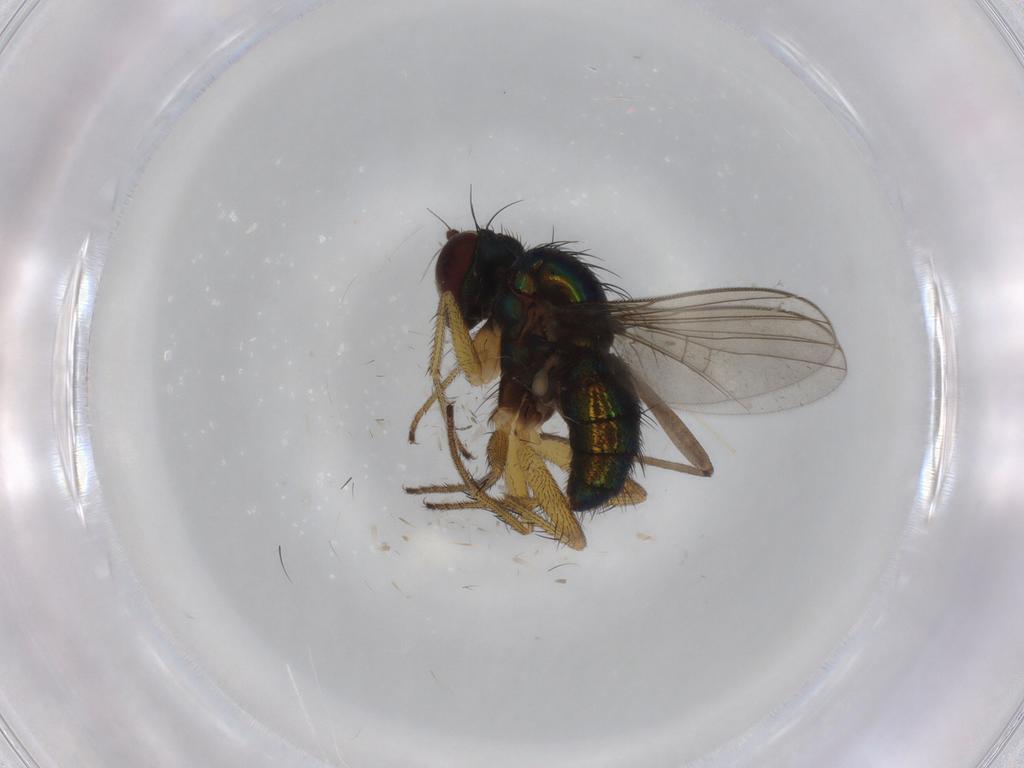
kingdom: Animalia
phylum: Arthropoda
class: Insecta
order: Diptera
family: Dolichopodidae
